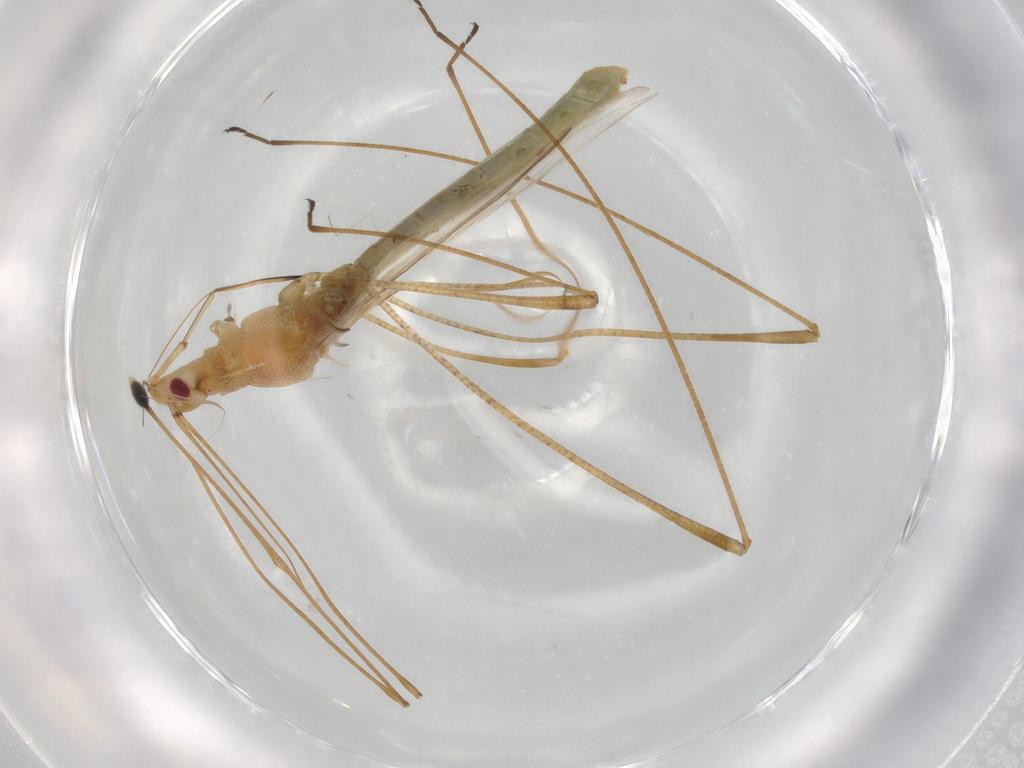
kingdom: Animalia
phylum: Arthropoda
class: Insecta
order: Hemiptera
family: Berytidae
